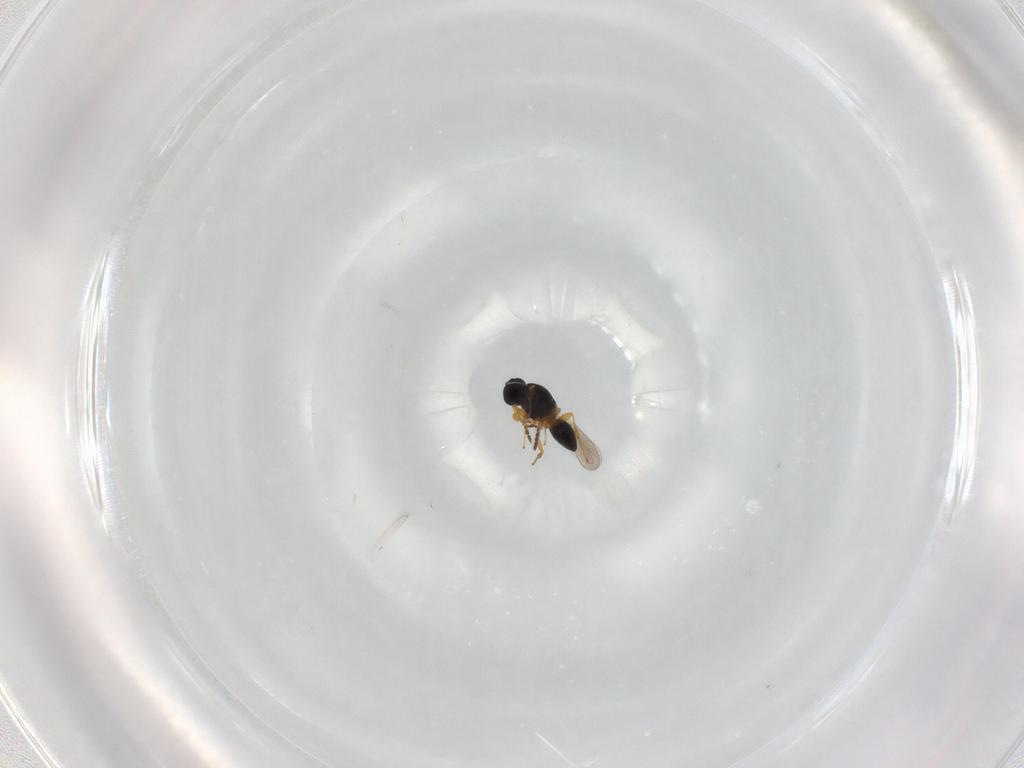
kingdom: Animalia
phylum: Arthropoda
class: Insecta
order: Hymenoptera
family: Platygastridae
